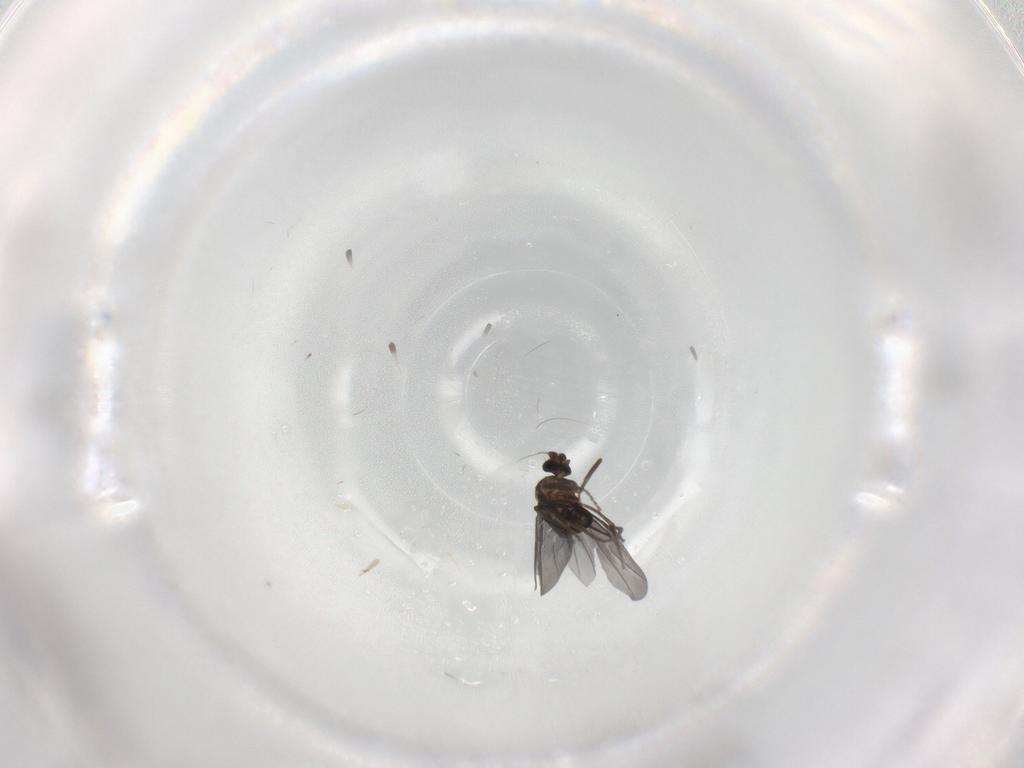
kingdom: Animalia
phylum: Arthropoda
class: Insecta
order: Diptera
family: Phoridae
